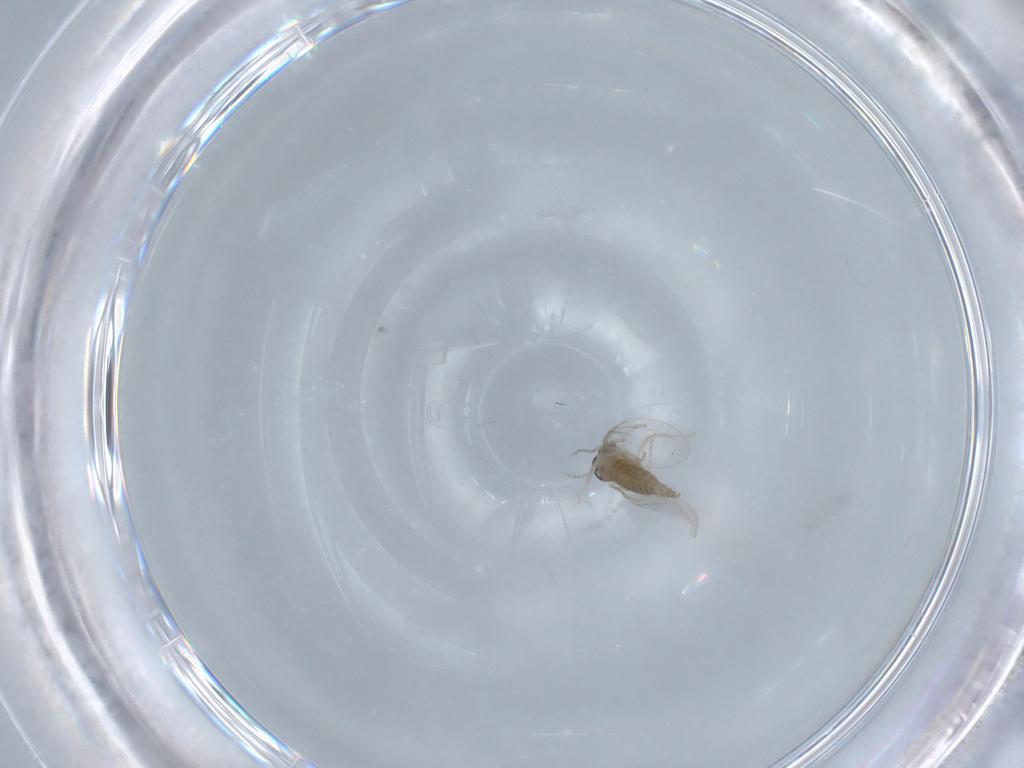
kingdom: Animalia
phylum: Arthropoda
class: Insecta
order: Diptera
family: Cecidomyiidae
